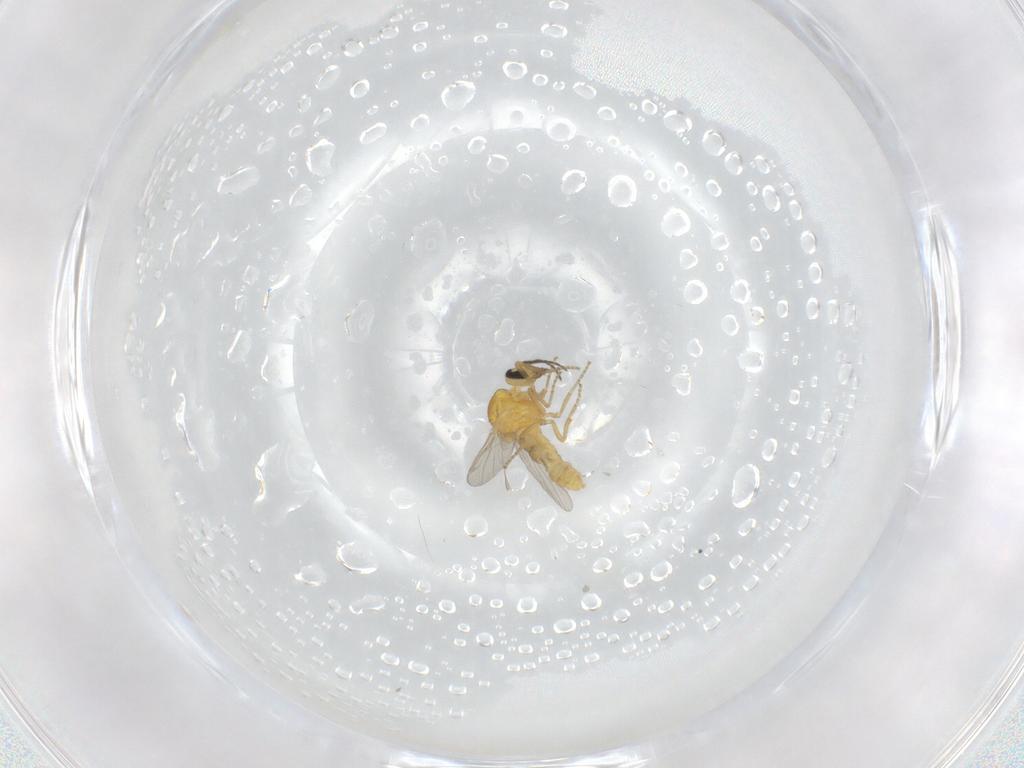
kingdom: Animalia
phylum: Arthropoda
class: Insecta
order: Diptera
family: Ceratopogonidae
